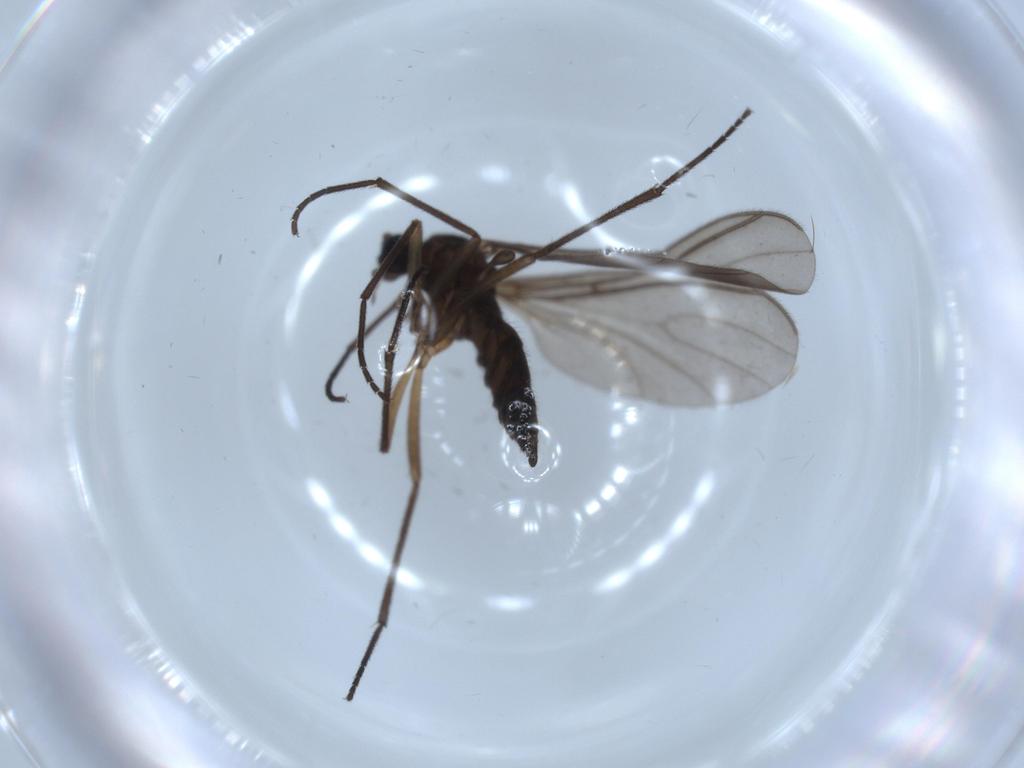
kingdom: Animalia
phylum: Arthropoda
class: Insecta
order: Diptera
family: Sciaridae
